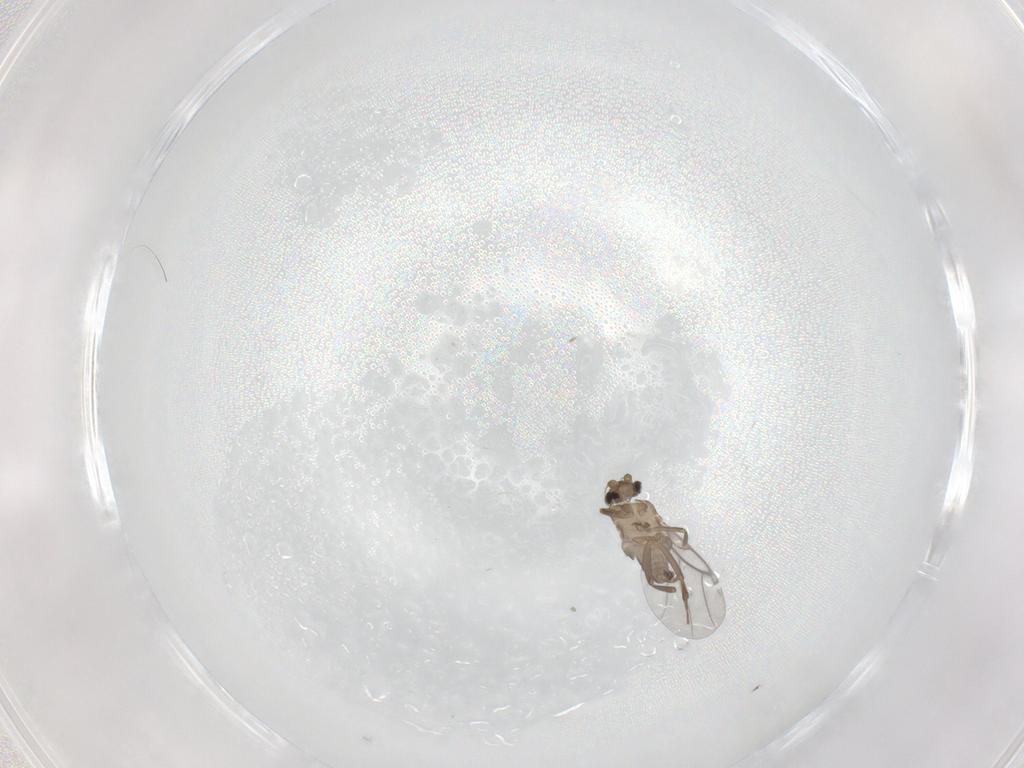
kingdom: Animalia
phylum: Arthropoda
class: Insecta
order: Diptera
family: Cecidomyiidae
